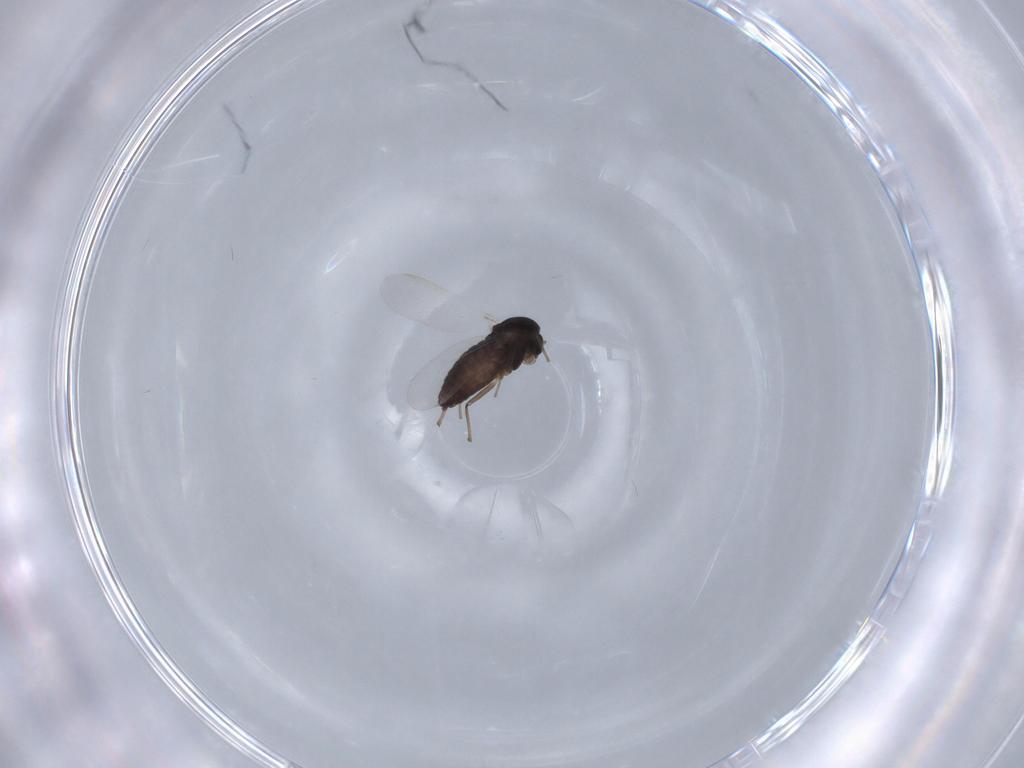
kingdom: Animalia
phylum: Arthropoda
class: Insecta
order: Diptera
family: Chironomidae
